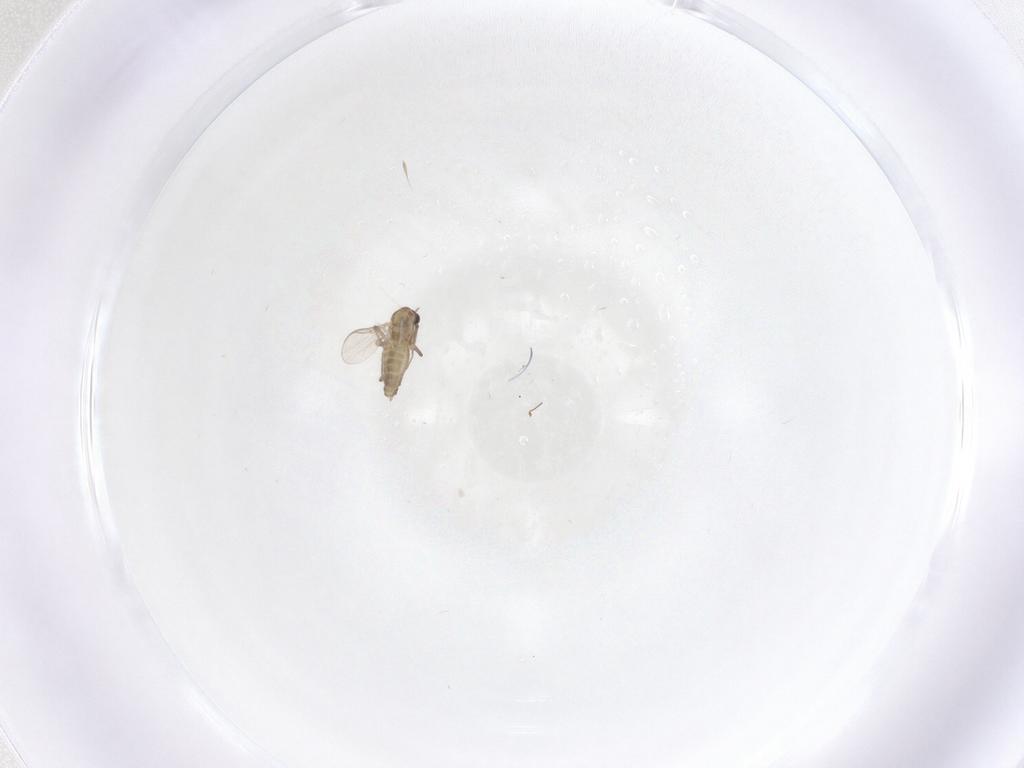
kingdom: Animalia
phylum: Arthropoda
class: Insecta
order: Diptera
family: Chironomidae
